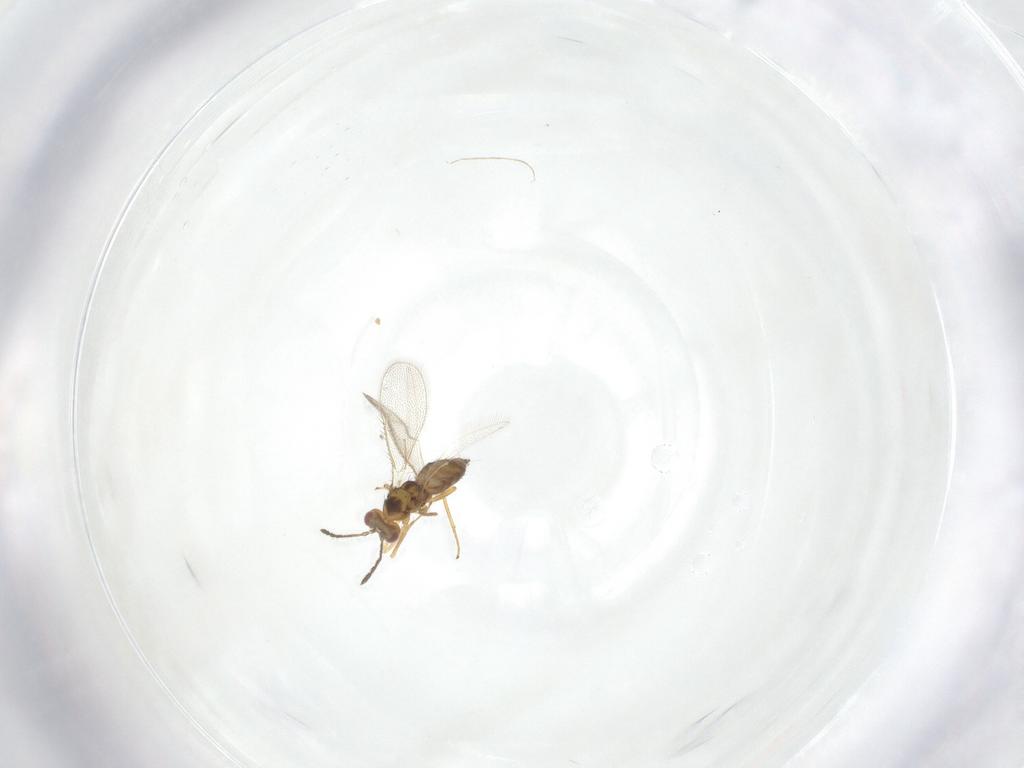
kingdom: Animalia
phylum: Arthropoda
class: Insecta
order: Hymenoptera
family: Eulophidae
